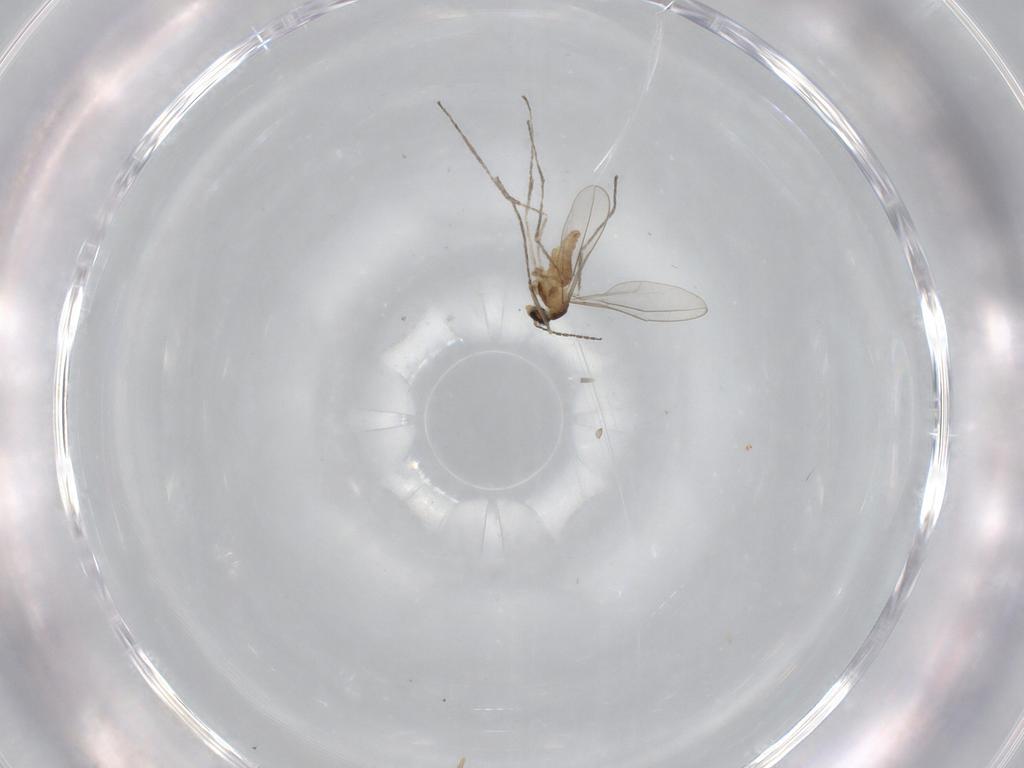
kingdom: Animalia
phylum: Arthropoda
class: Insecta
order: Diptera
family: Cecidomyiidae
